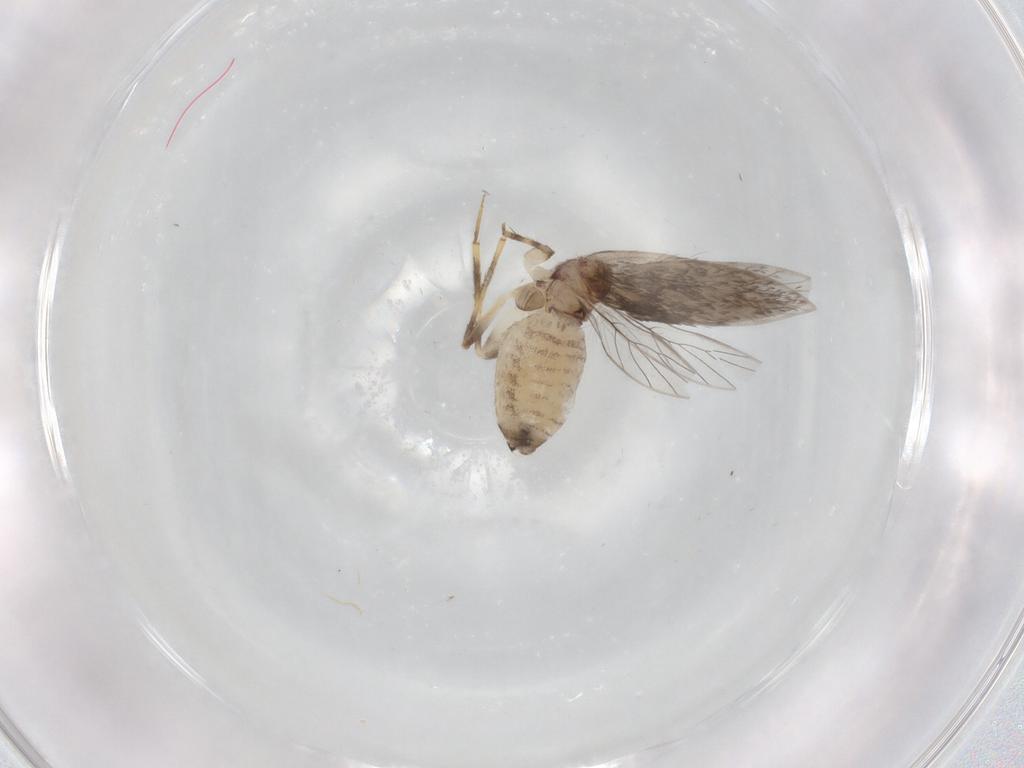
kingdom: Animalia
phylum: Arthropoda
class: Insecta
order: Psocodea
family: Lepidopsocidae
